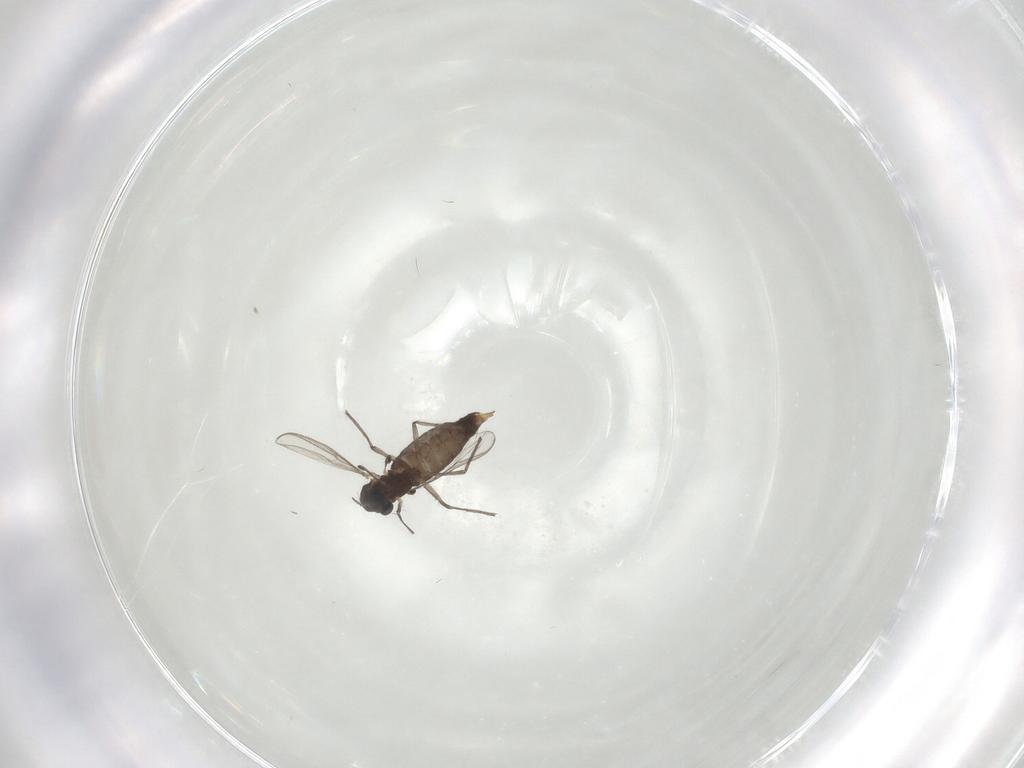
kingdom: Animalia
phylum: Arthropoda
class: Insecta
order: Diptera
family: Chironomidae
